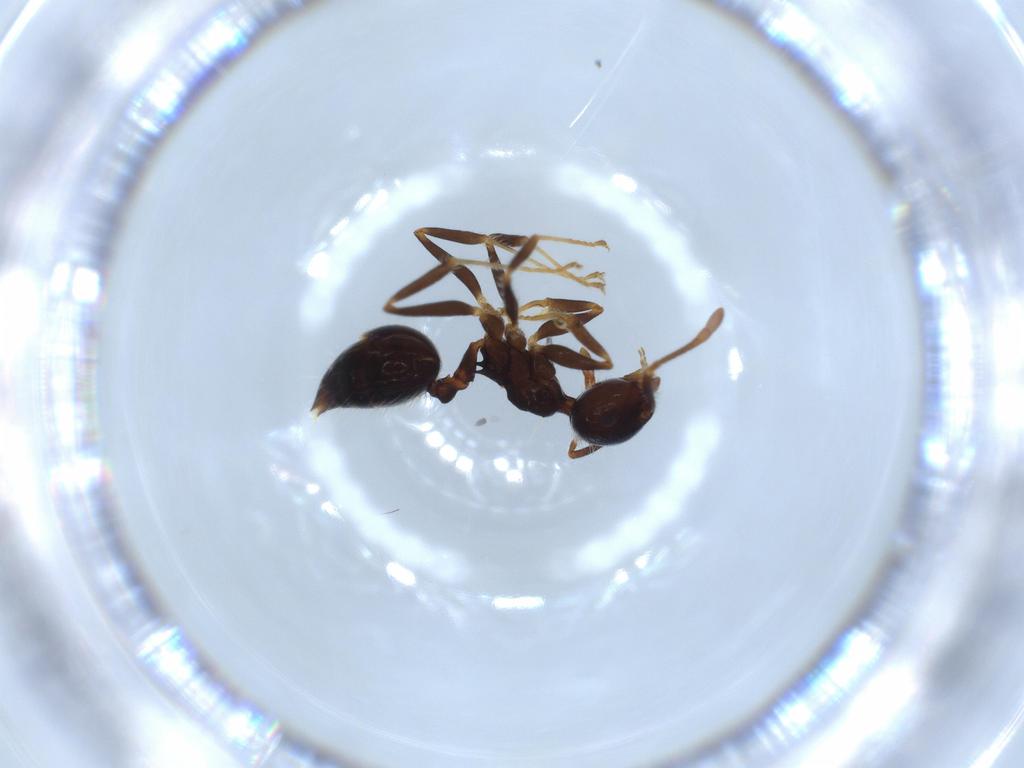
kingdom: Animalia
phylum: Arthropoda
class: Insecta
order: Hymenoptera
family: Formicidae
